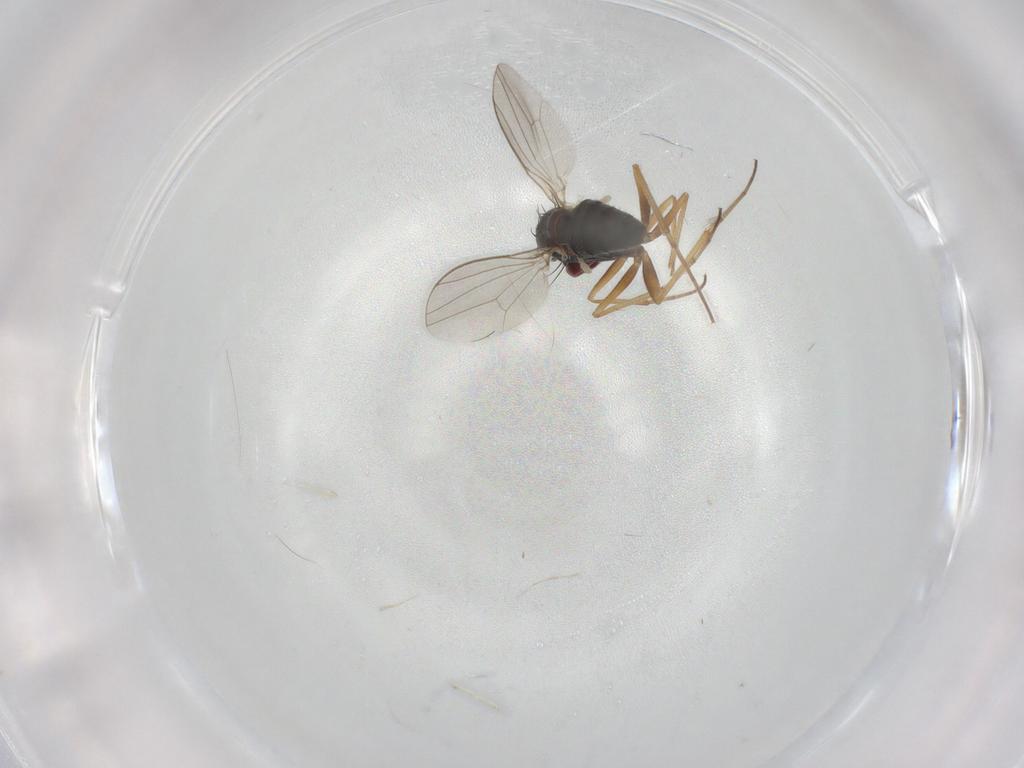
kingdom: Animalia
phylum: Arthropoda
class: Insecta
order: Diptera
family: Dolichopodidae
